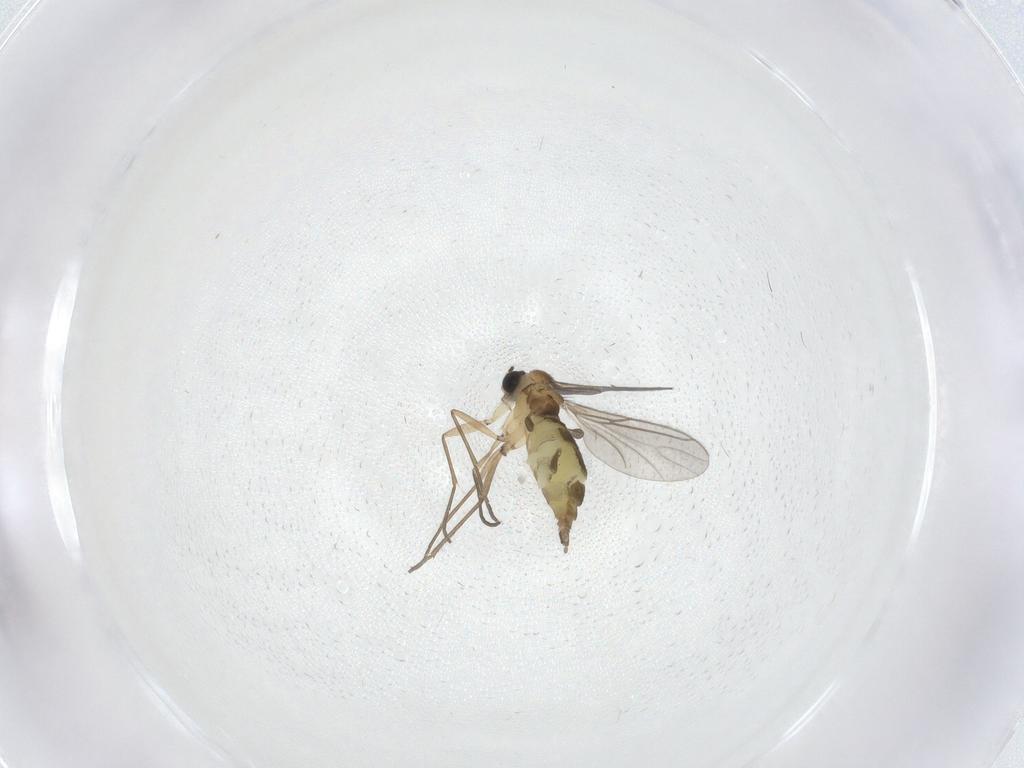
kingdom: Animalia
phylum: Arthropoda
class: Insecta
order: Diptera
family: Sciaridae
